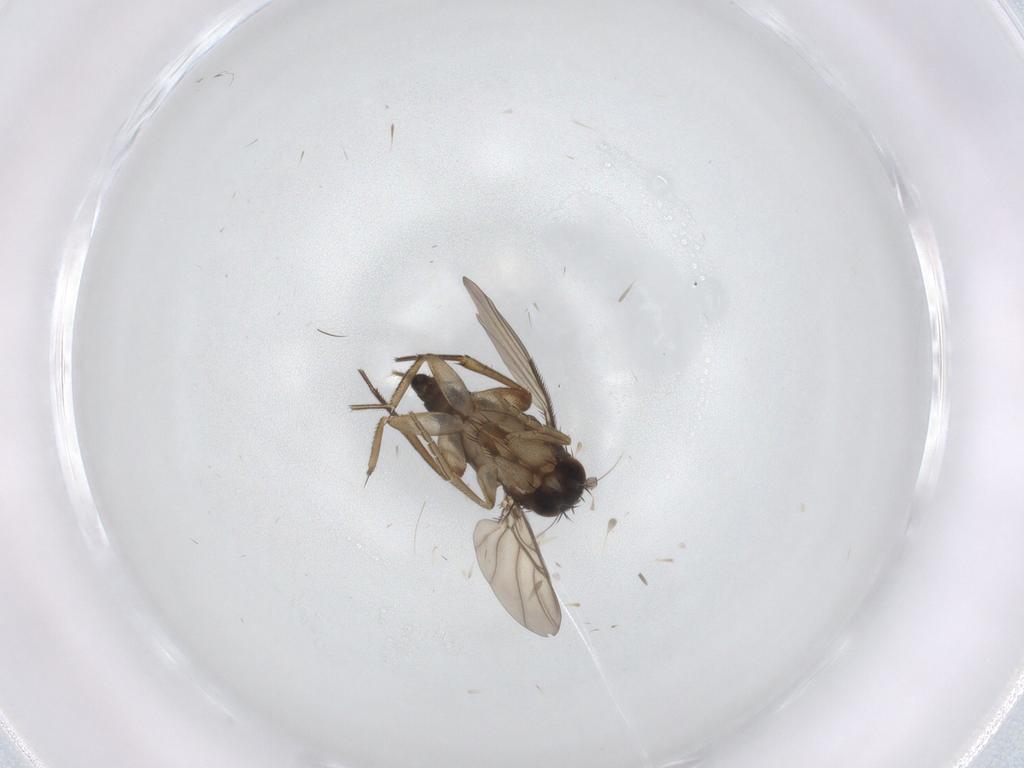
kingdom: Animalia
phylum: Arthropoda
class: Insecta
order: Diptera
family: Phoridae
